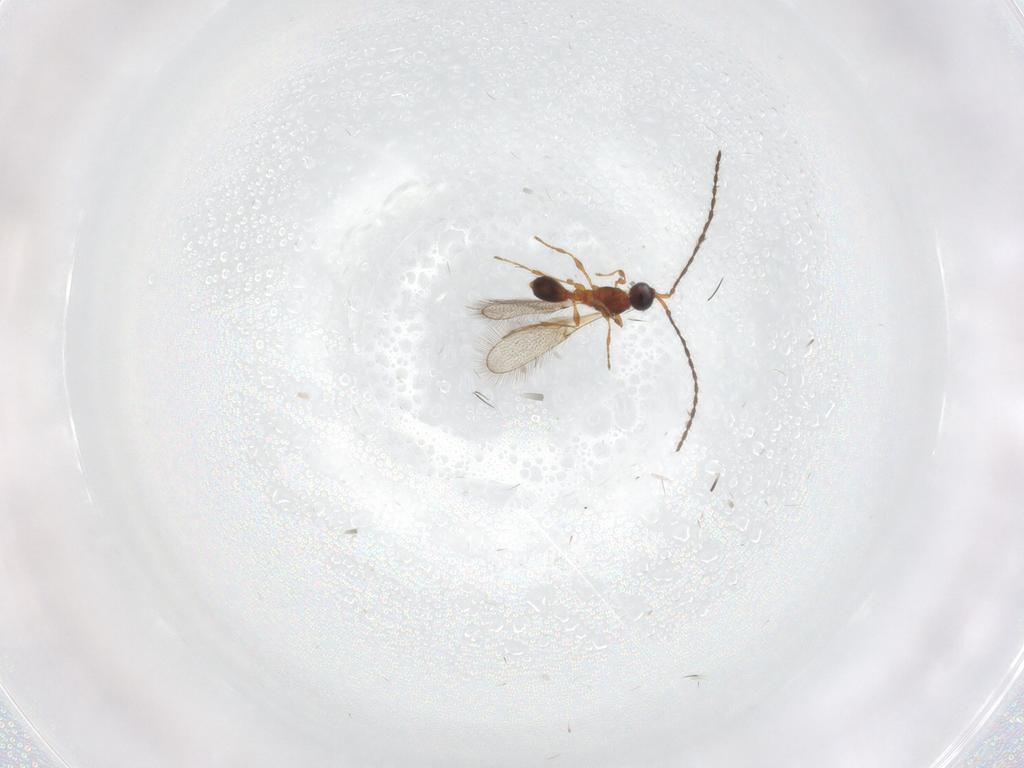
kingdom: Animalia
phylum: Arthropoda
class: Insecta
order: Hymenoptera
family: Diapriidae
